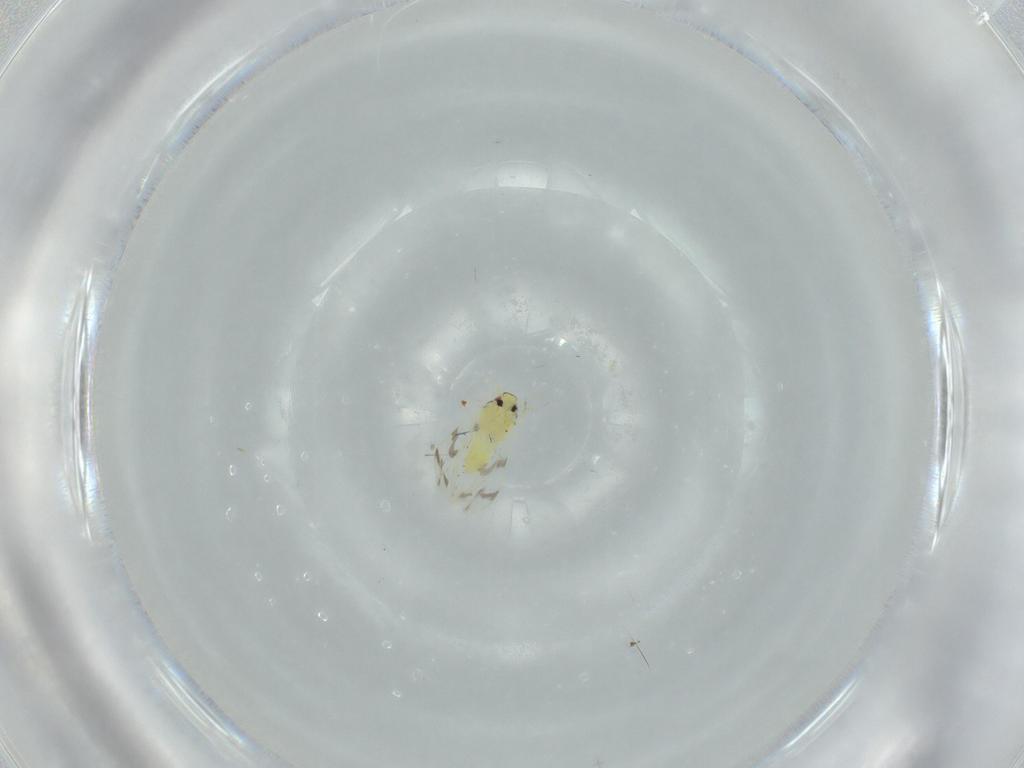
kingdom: Animalia
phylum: Arthropoda
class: Insecta
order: Hemiptera
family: Aleyrodidae
